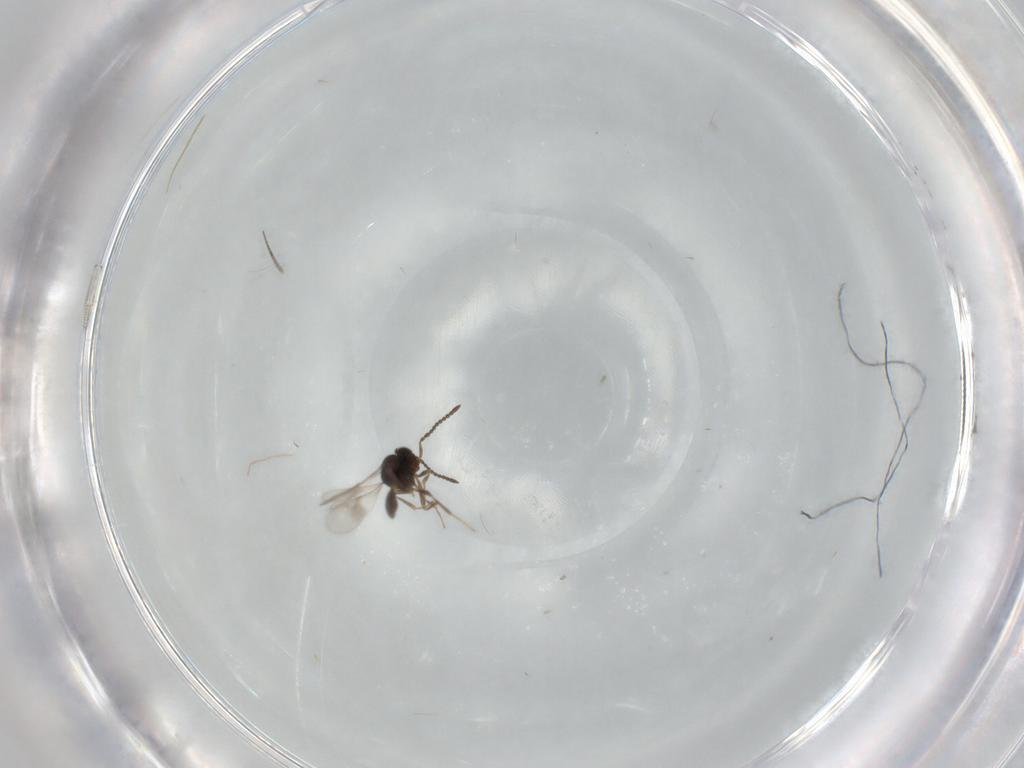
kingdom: Animalia
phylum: Arthropoda
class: Insecta
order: Hymenoptera
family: Scelionidae
